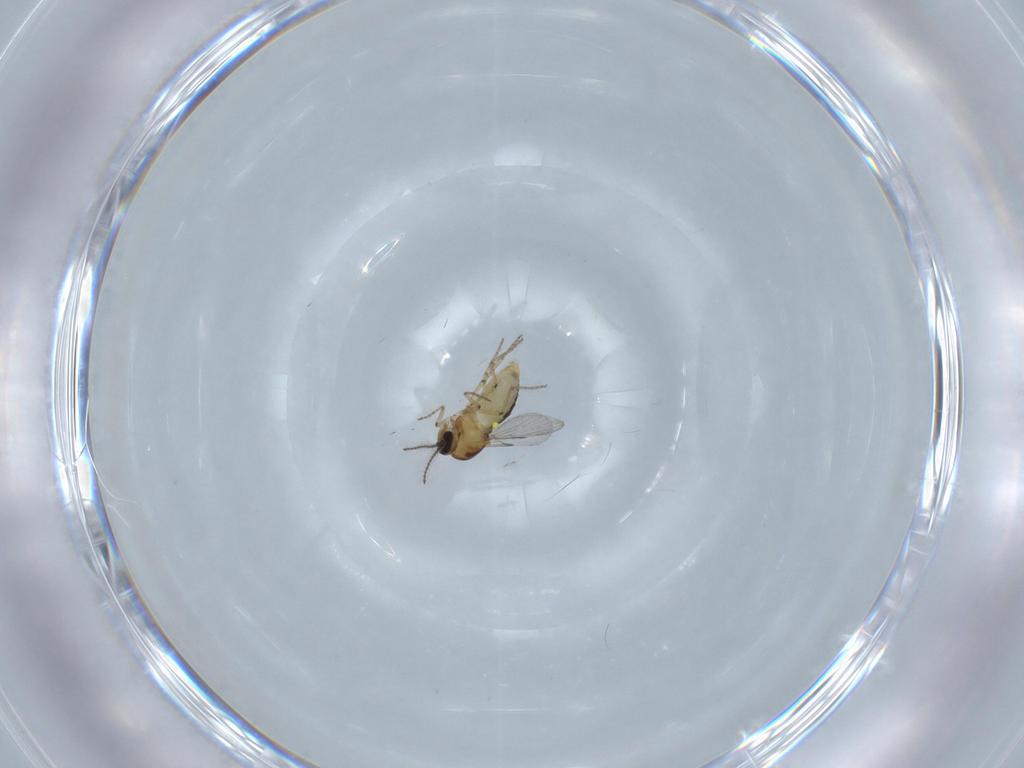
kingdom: Animalia
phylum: Arthropoda
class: Insecta
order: Diptera
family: Ceratopogonidae
